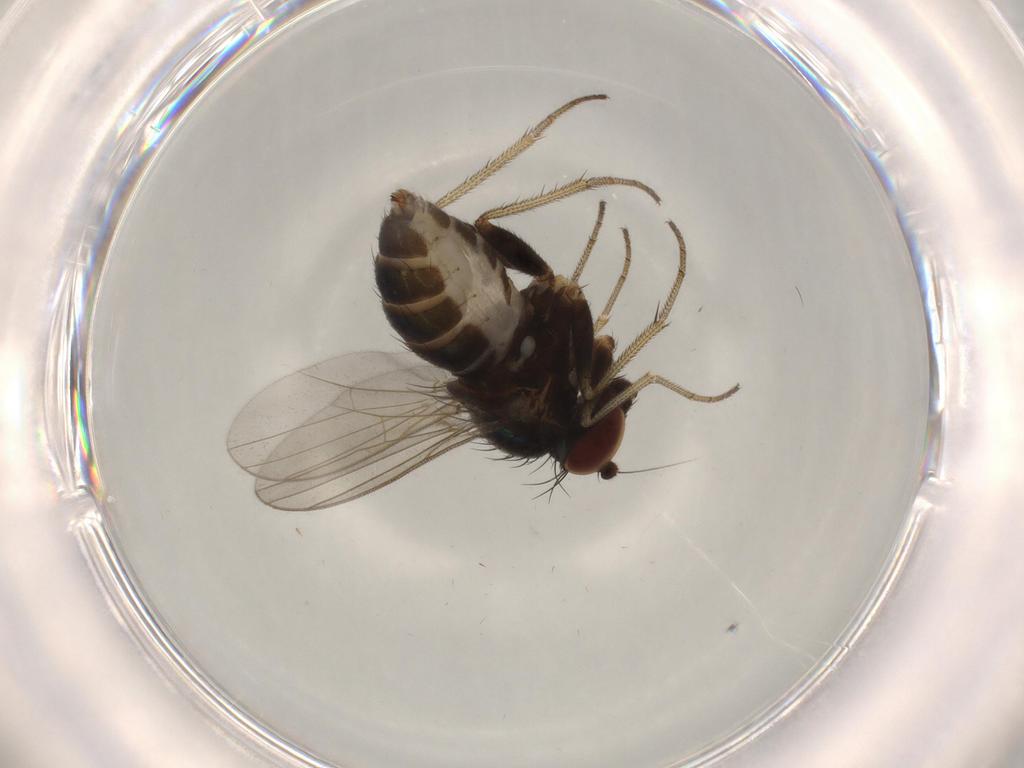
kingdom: Animalia
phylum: Arthropoda
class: Insecta
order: Diptera
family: Dolichopodidae
